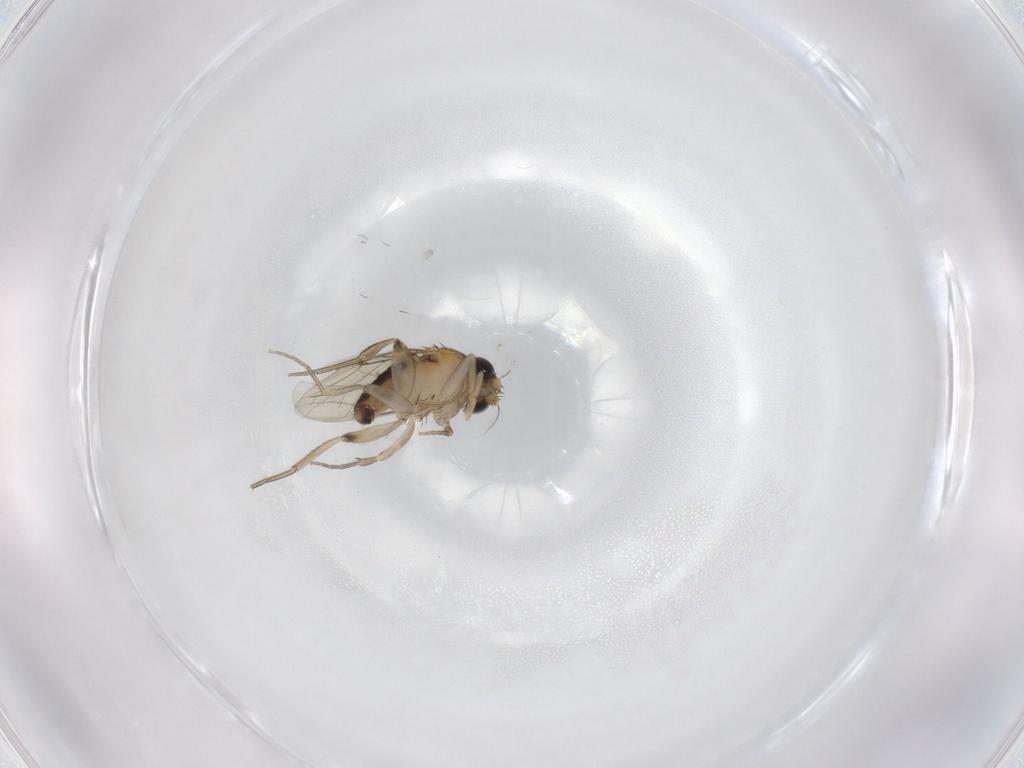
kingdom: Animalia
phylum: Arthropoda
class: Insecta
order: Diptera
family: Phoridae
